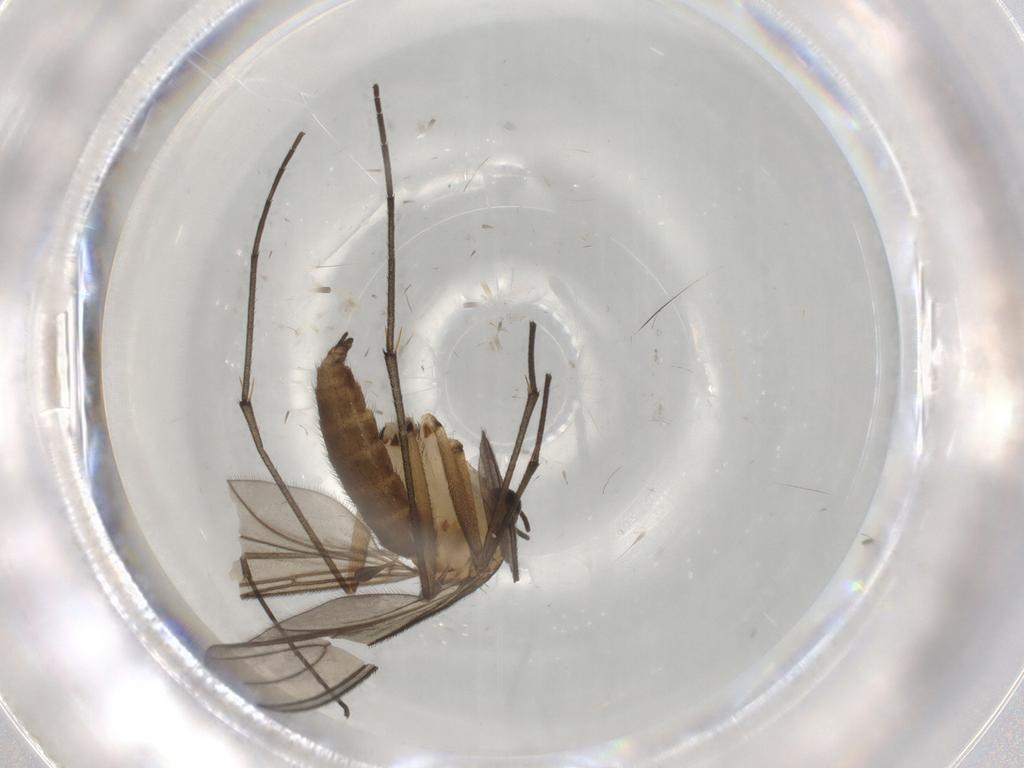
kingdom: Animalia
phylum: Arthropoda
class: Insecta
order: Diptera
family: Sciaridae
